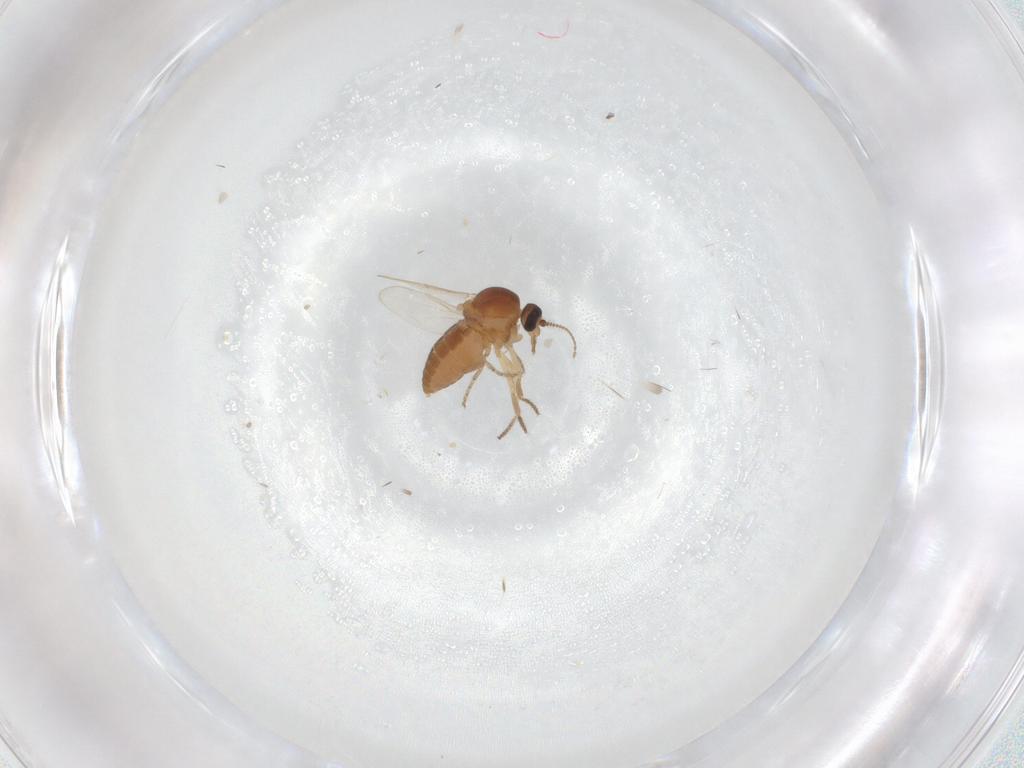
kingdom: Animalia
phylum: Arthropoda
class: Insecta
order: Diptera
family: Ceratopogonidae
